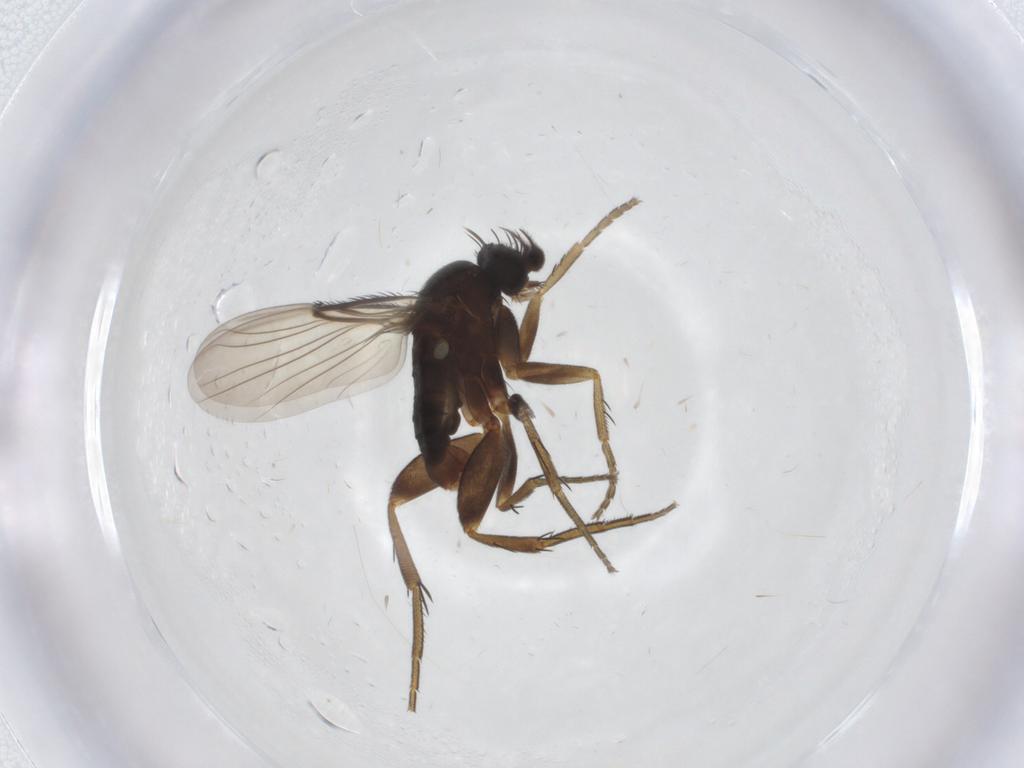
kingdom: Animalia
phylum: Arthropoda
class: Insecta
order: Diptera
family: Phoridae
